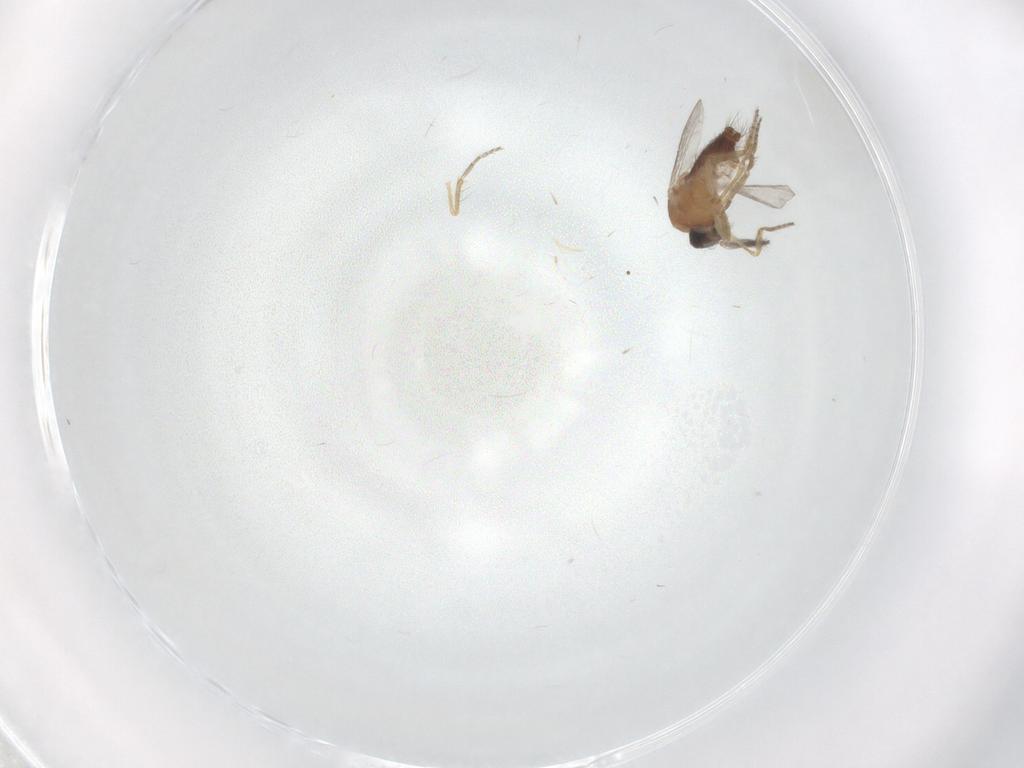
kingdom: Animalia
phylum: Arthropoda
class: Insecta
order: Diptera
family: Ceratopogonidae
